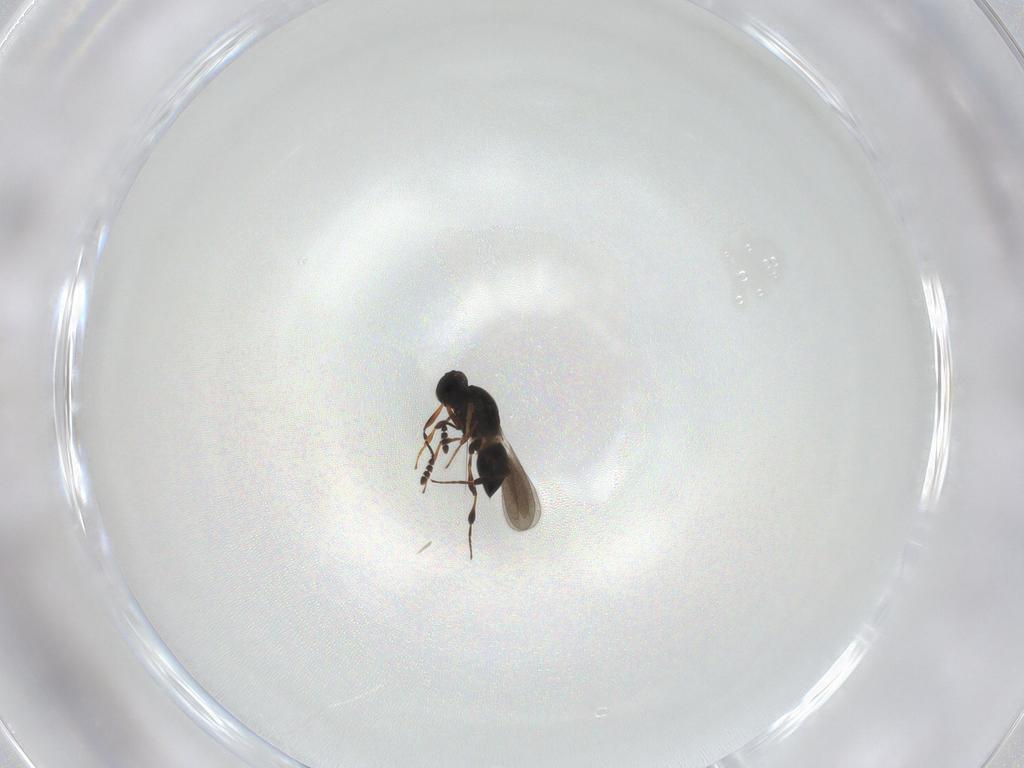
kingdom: Animalia
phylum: Arthropoda
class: Insecta
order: Hymenoptera
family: Platygastridae
